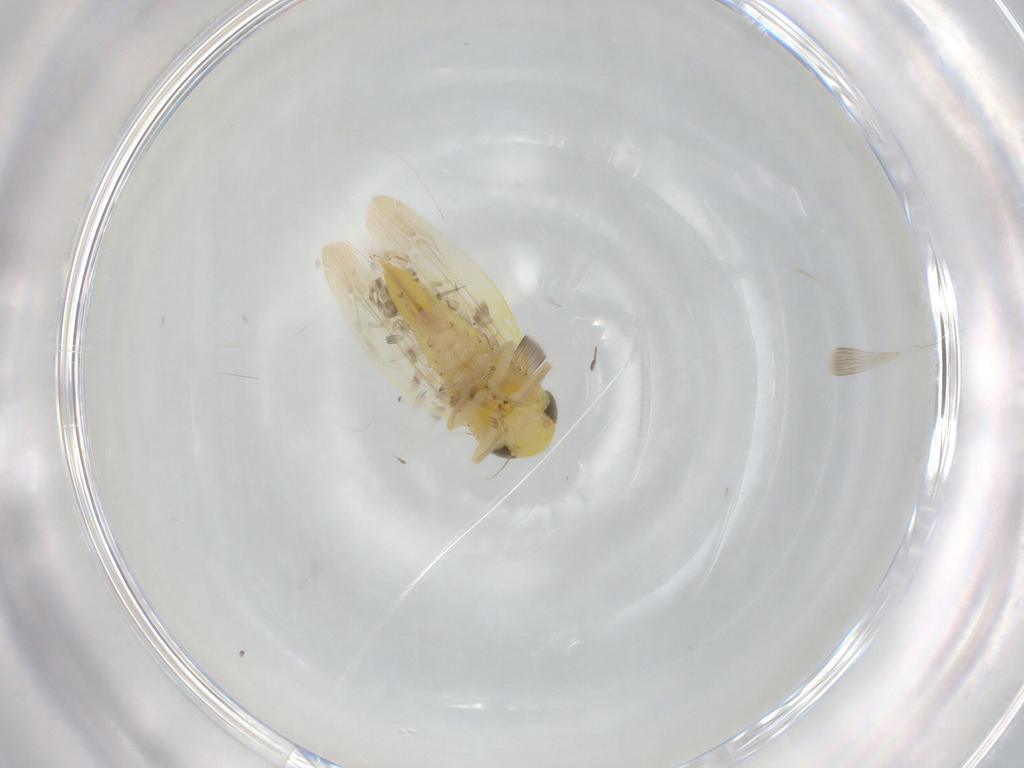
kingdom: Animalia
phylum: Arthropoda
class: Insecta
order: Hemiptera
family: Cicadellidae
